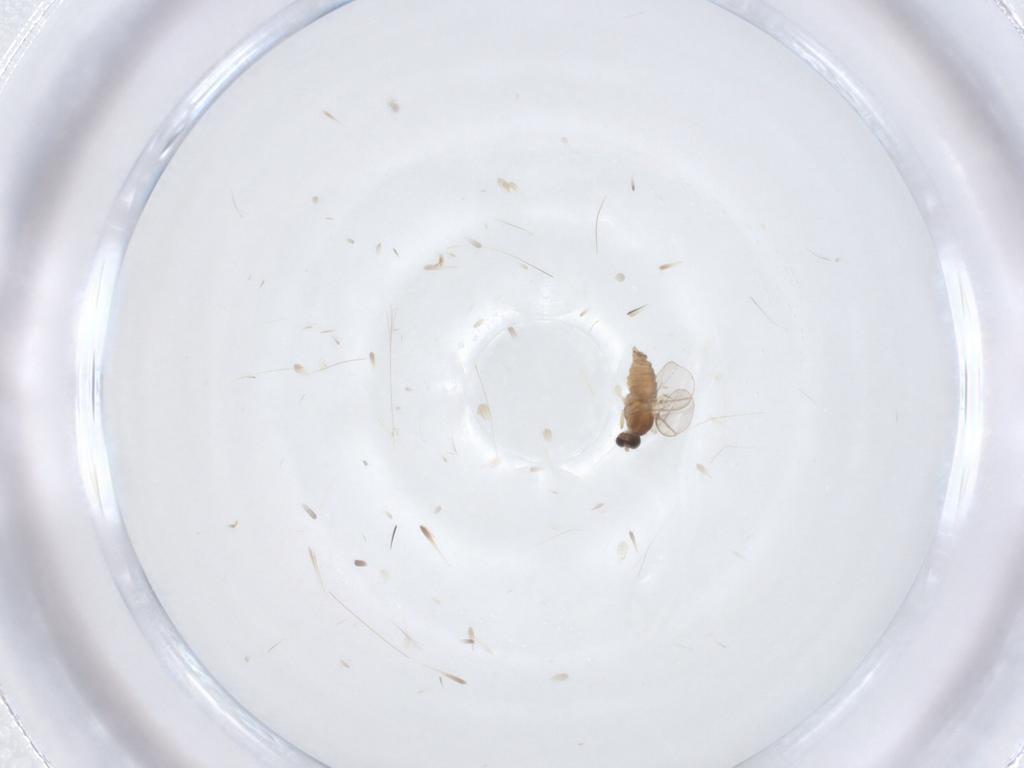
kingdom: Animalia
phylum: Arthropoda
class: Insecta
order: Diptera
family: Cecidomyiidae
